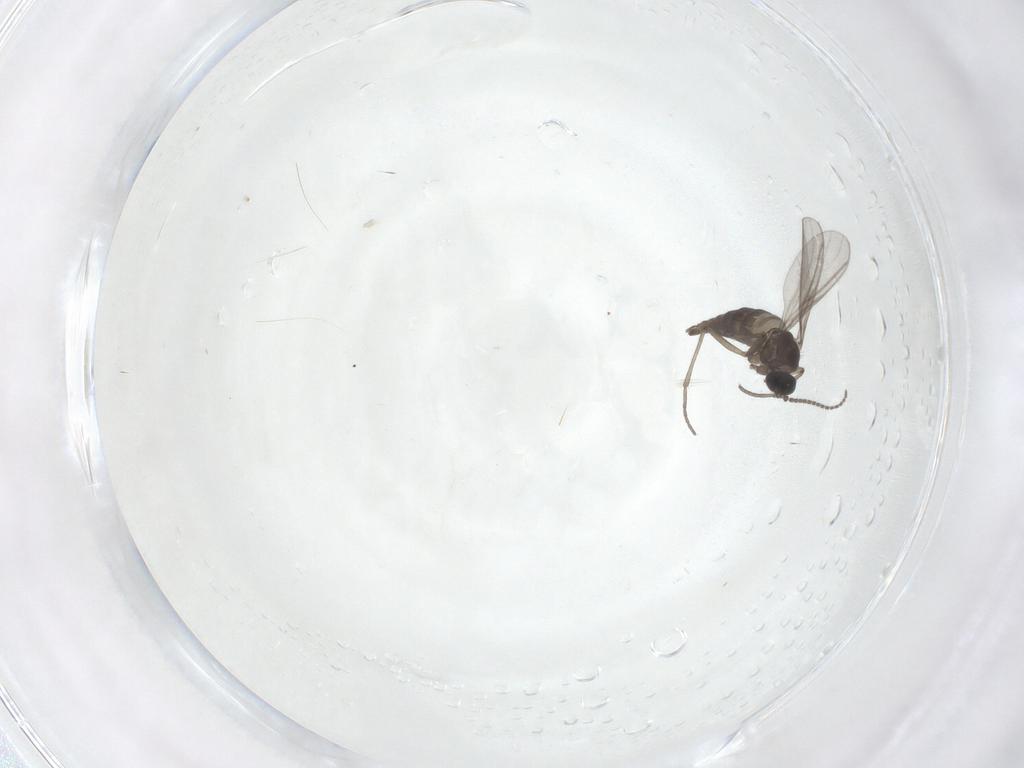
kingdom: Animalia
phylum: Arthropoda
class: Insecta
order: Diptera
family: Cecidomyiidae
